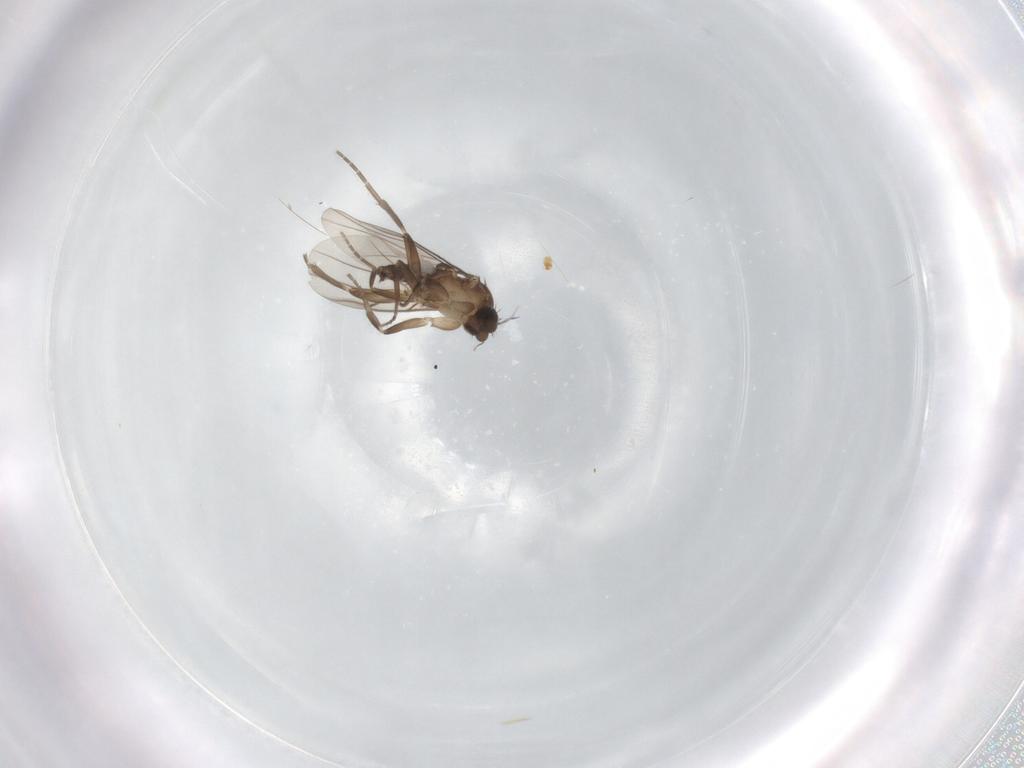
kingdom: Animalia
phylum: Arthropoda
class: Insecta
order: Diptera
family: Phoridae
